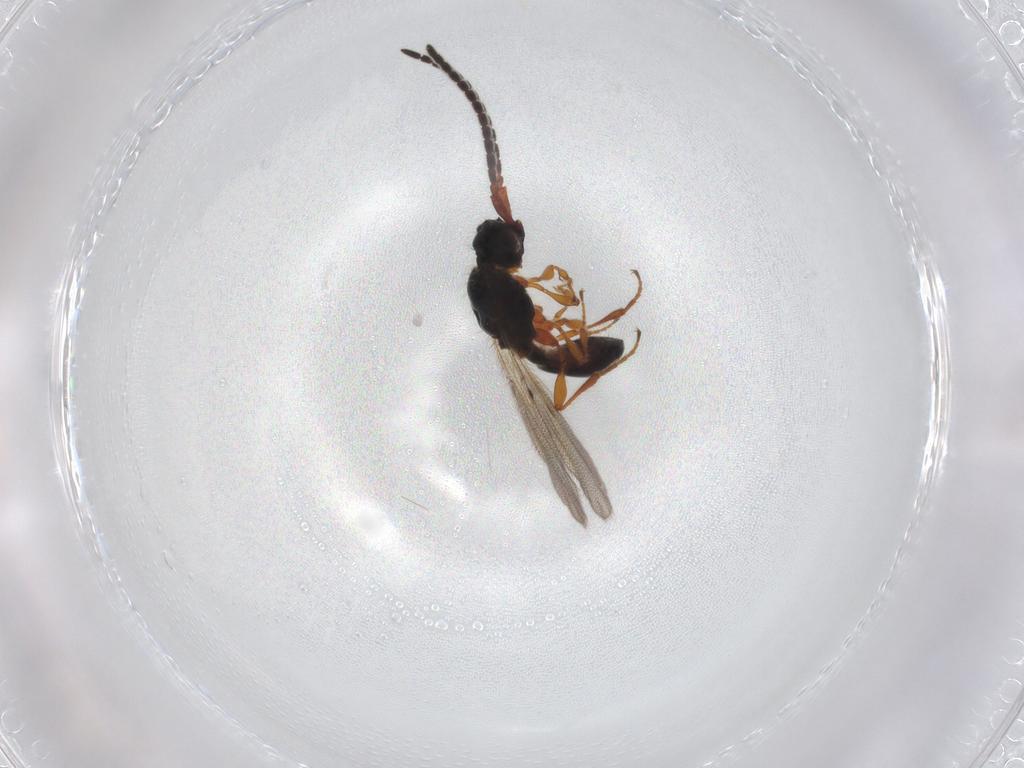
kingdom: Animalia
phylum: Arthropoda
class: Insecta
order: Hymenoptera
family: Diapriidae
